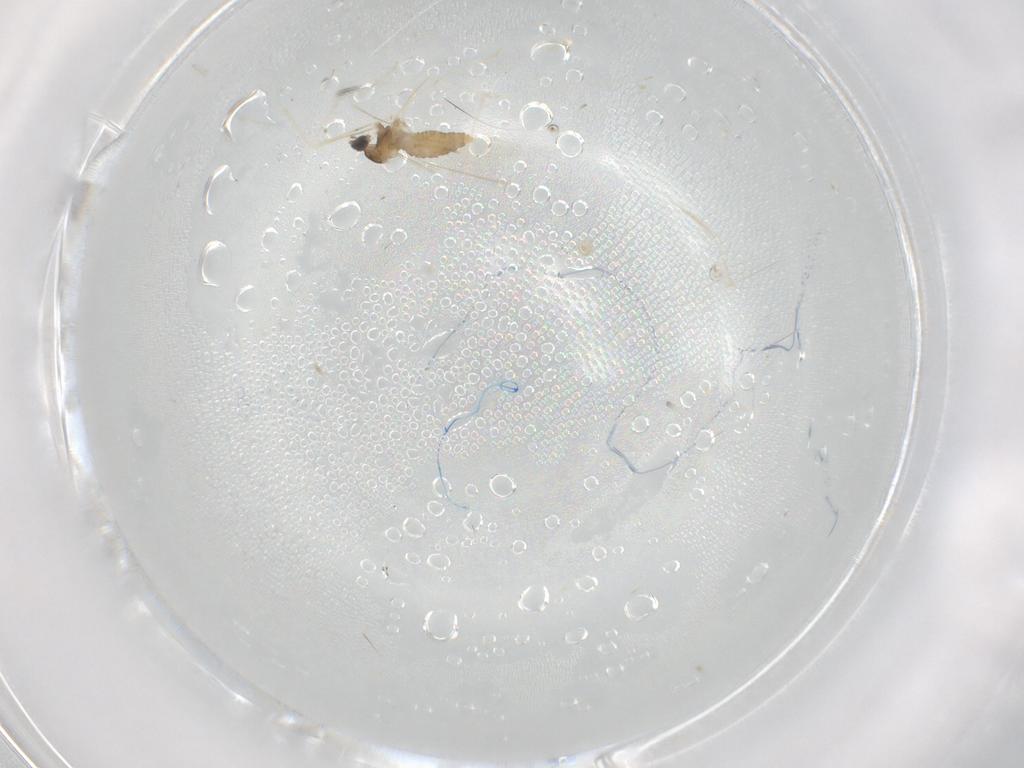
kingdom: Animalia
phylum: Arthropoda
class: Insecta
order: Diptera
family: Cecidomyiidae
